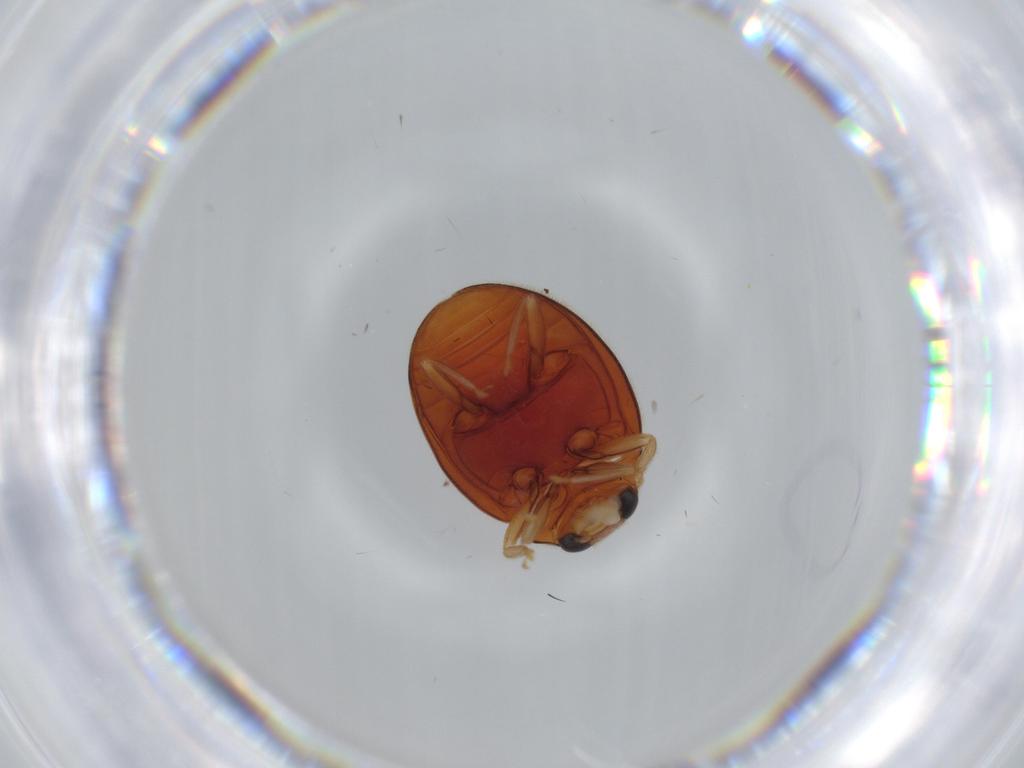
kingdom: Animalia
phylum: Arthropoda
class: Insecta
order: Coleoptera
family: Coccinellidae
